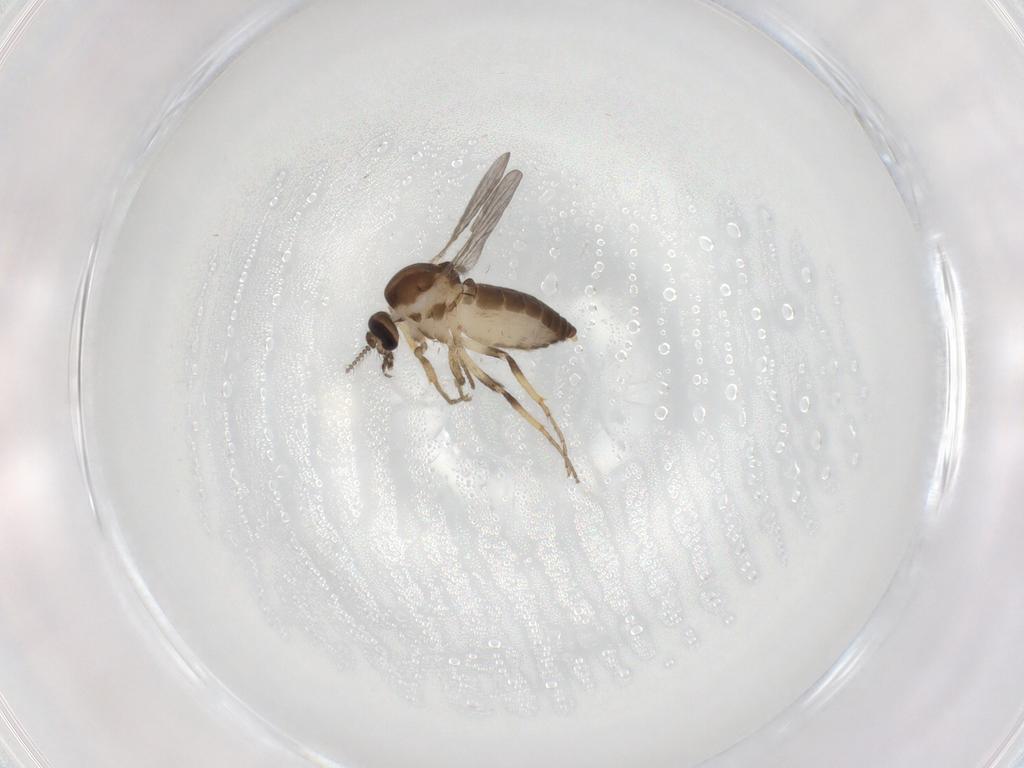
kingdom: Animalia
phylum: Arthropoda
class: Insecta
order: Diptera
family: Ceratopogonidae
